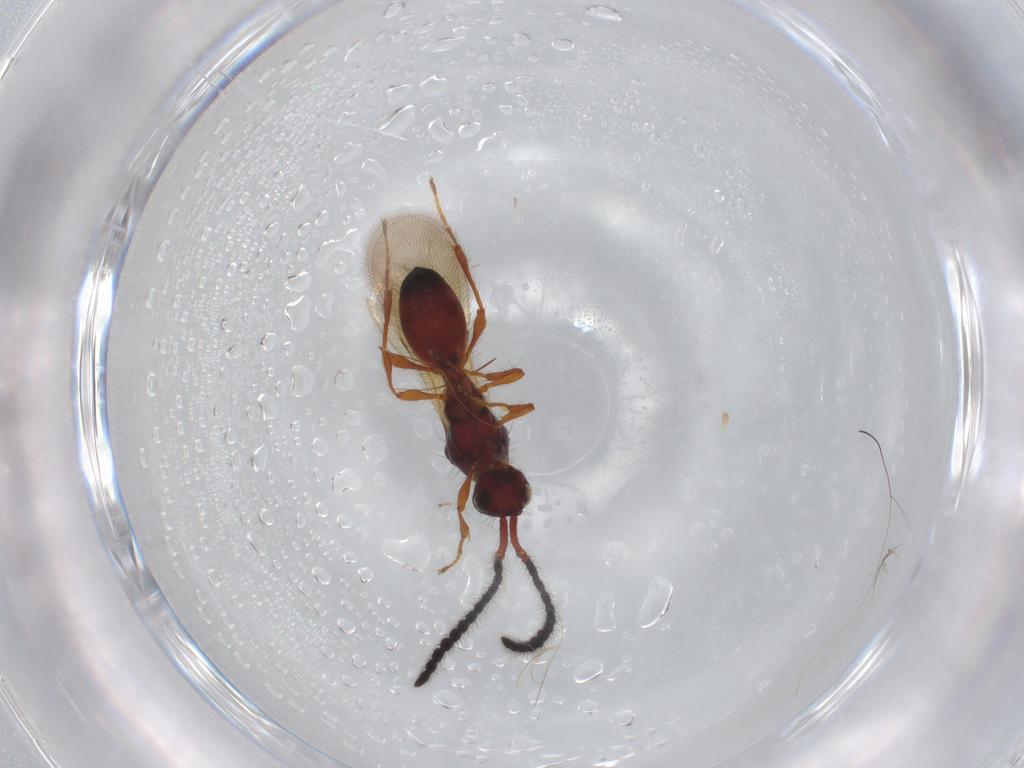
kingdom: Animalia
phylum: Arthropoda
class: Insecta
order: Hymenoptera
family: Diapriidae
